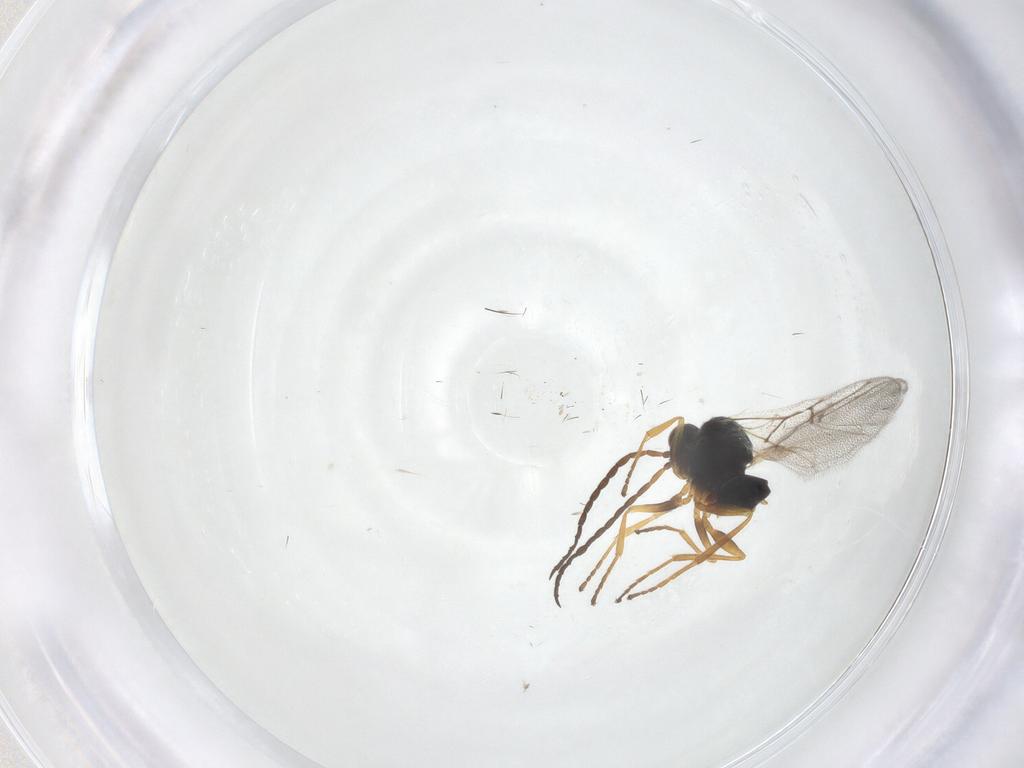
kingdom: Animalia
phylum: Arthropoda
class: Insecta
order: Hymenoptera
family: Cynipidae
